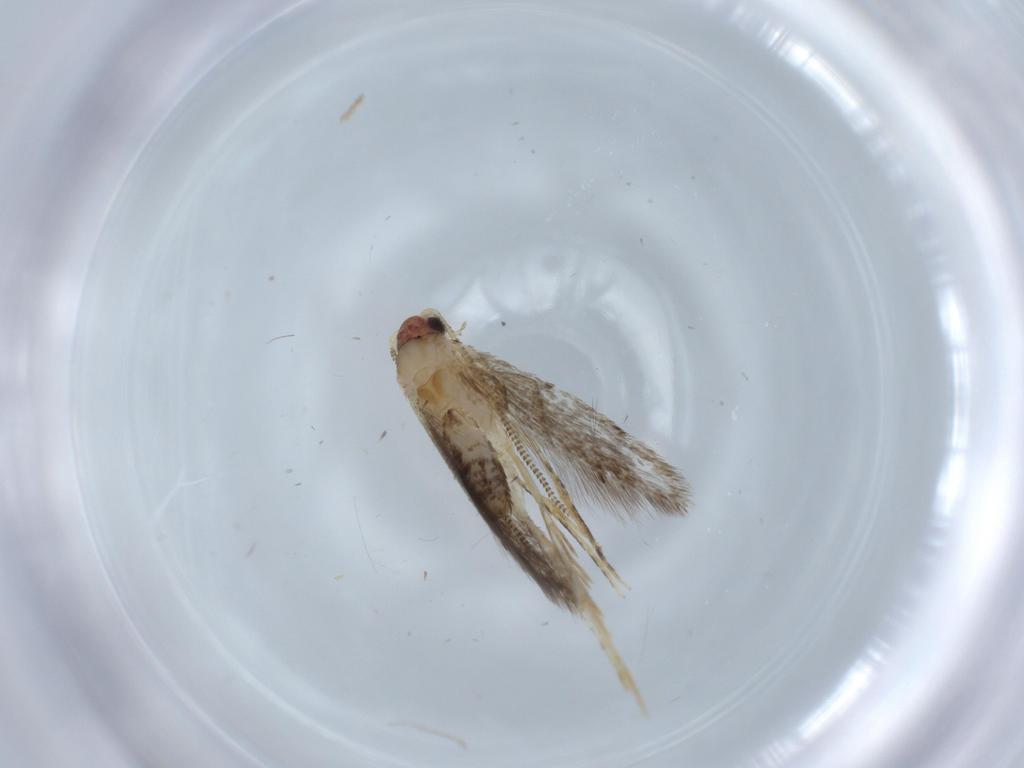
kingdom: Animalia
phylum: Arthropoda
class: Insecta
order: Lepidoptera
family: Tineidae
